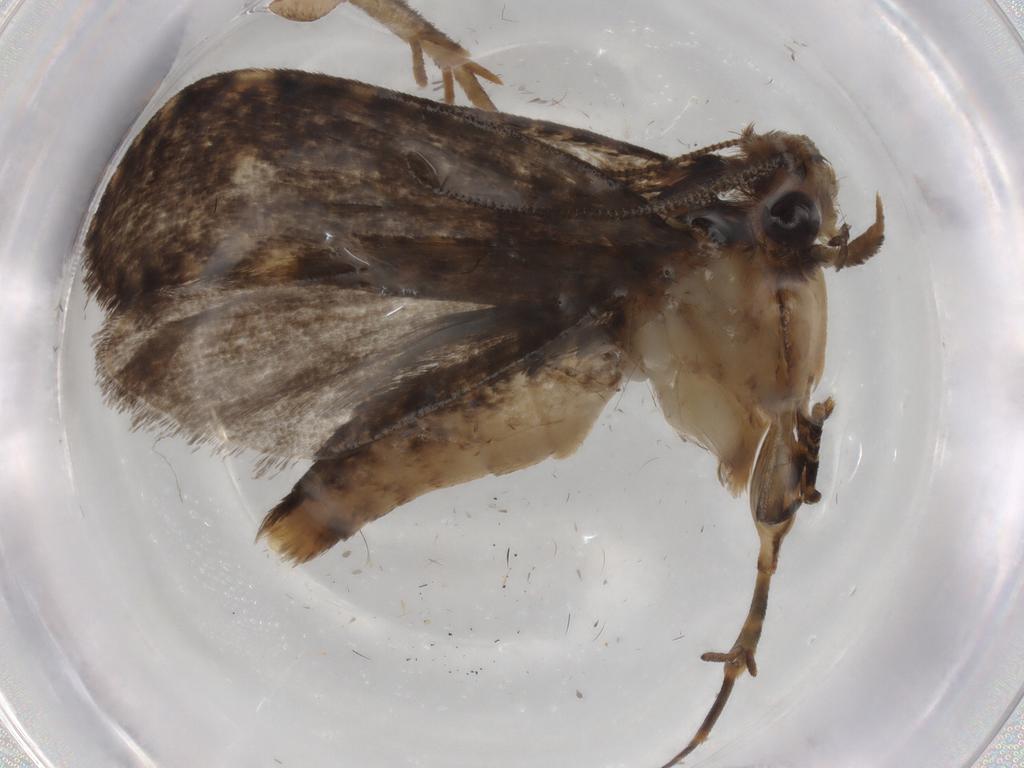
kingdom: Animalia
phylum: Arthropoda
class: Insecta
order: Lepidoptera
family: Tineidae
